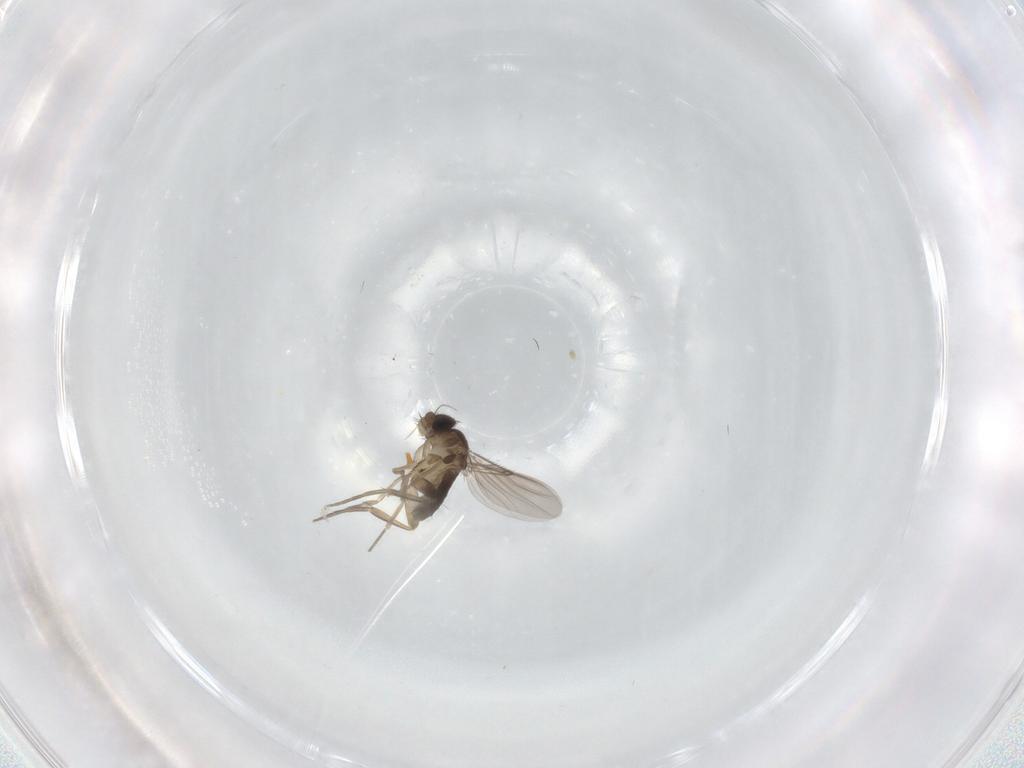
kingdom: Animalia
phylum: Arthropoda
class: Insecta
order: Diptera
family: Phoridae
